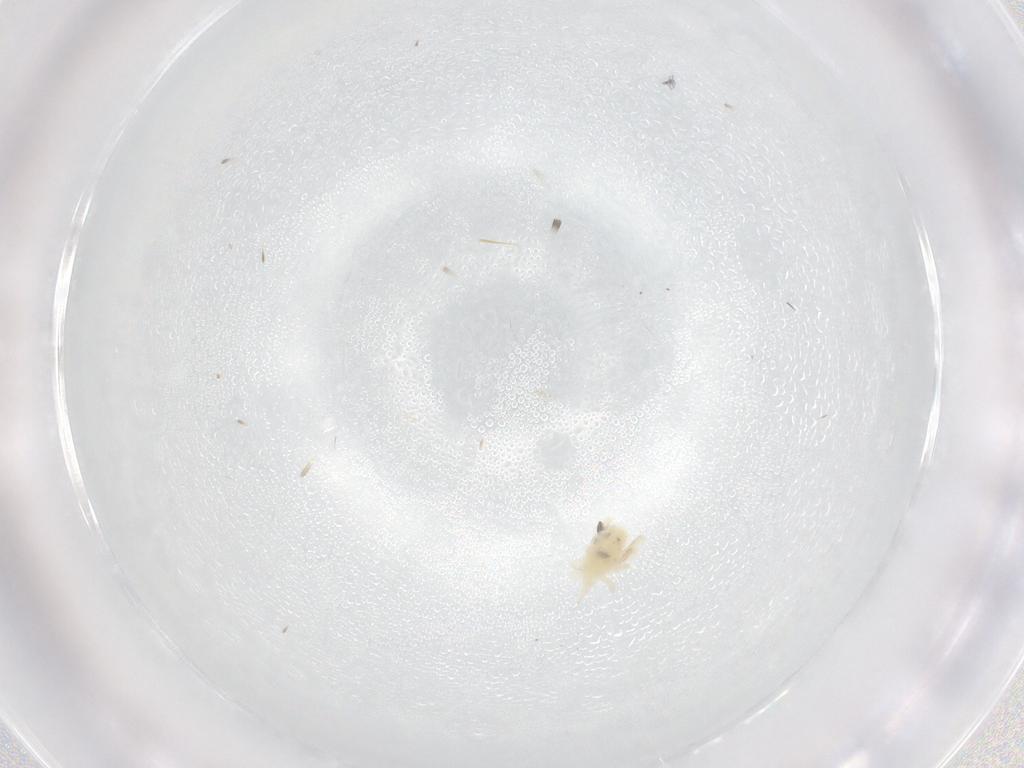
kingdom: Animalia
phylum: Arthropoda
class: Arachnida
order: Trombidiformes
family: Bdellidae
